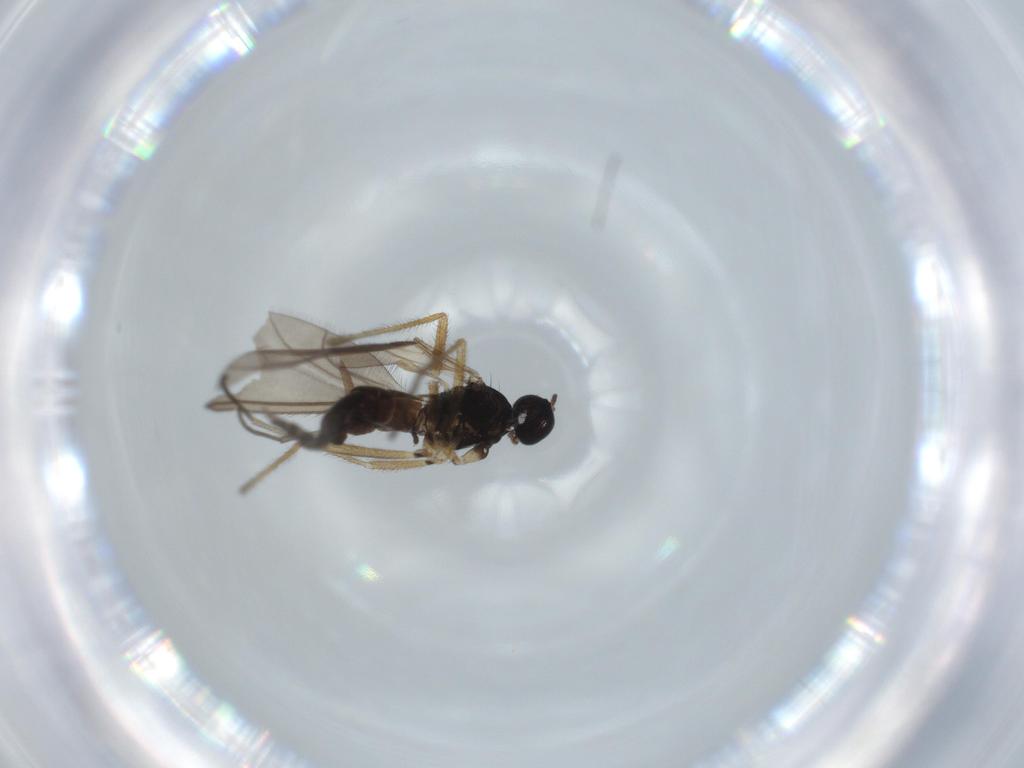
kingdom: Animalia
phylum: Arthropoda
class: Insecta
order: Diptera
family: Sciaridae
